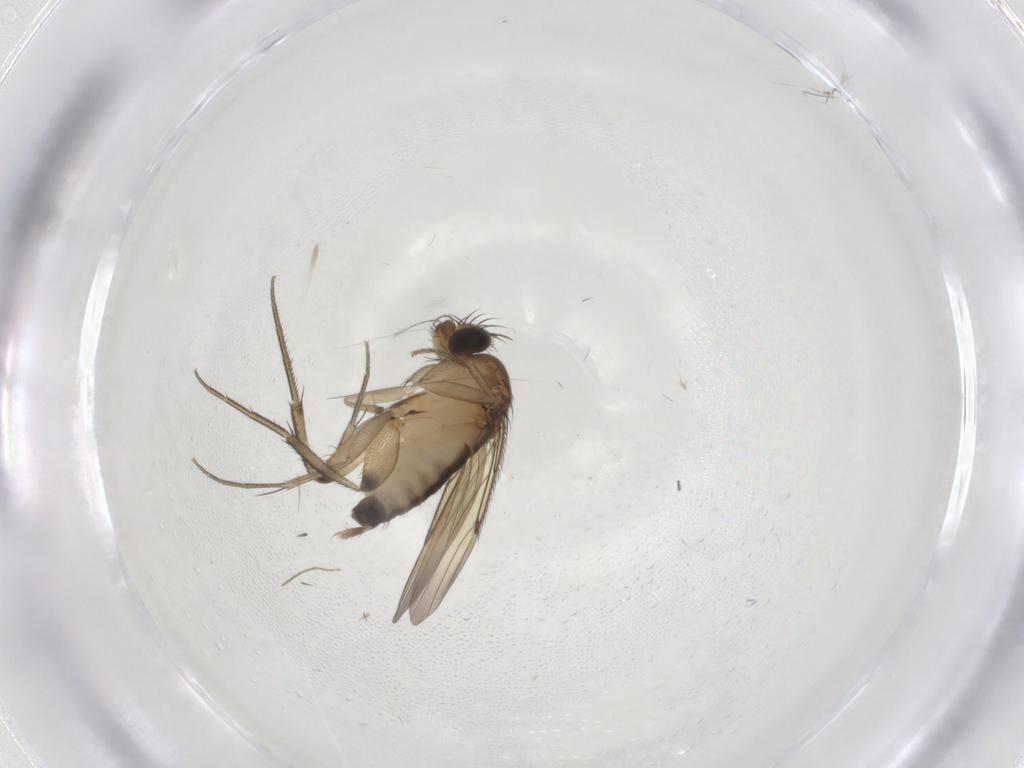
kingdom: Animalia
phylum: Arthropoda
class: Insecta
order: Diptera
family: Phoridae
